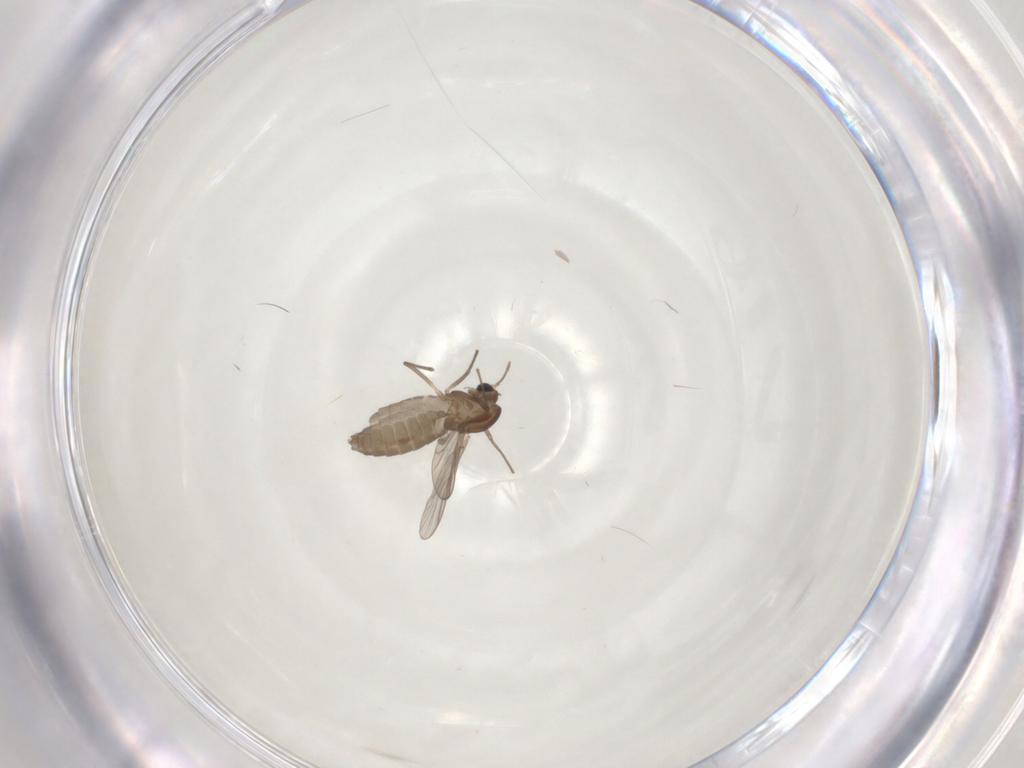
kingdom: Animalia
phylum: Arthropoda
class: Insecta
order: Diptera
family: Chironomidae
